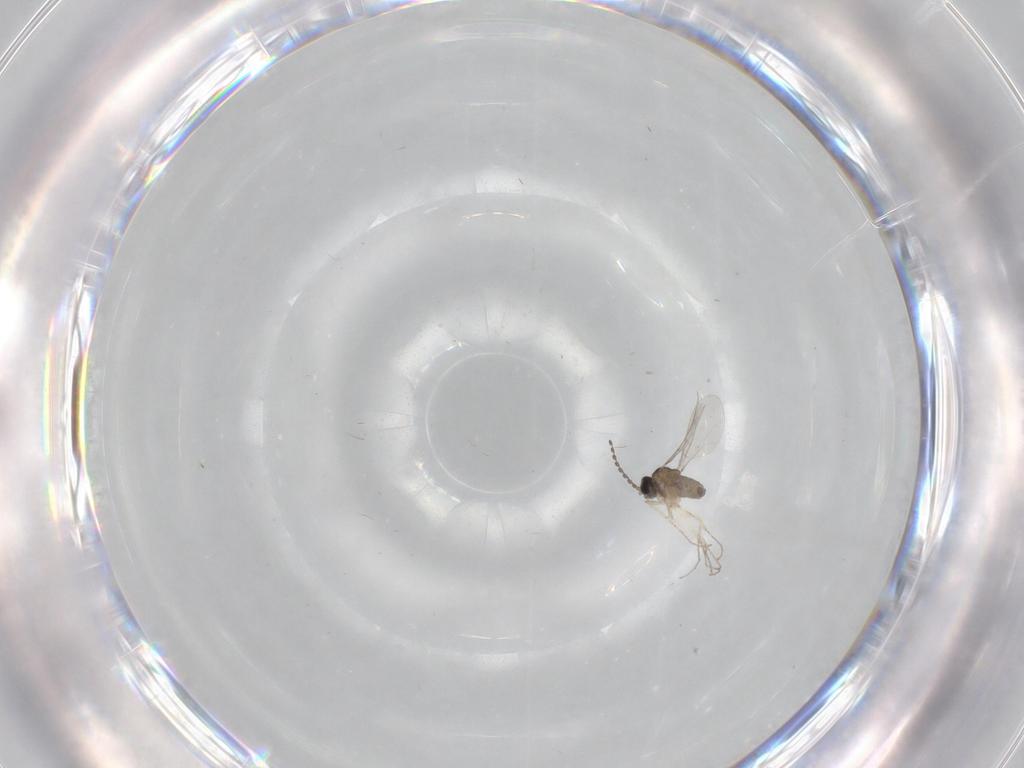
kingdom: Animalia
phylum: Arthropoda
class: Insecta
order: Diptera
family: Cecidomyiidae
